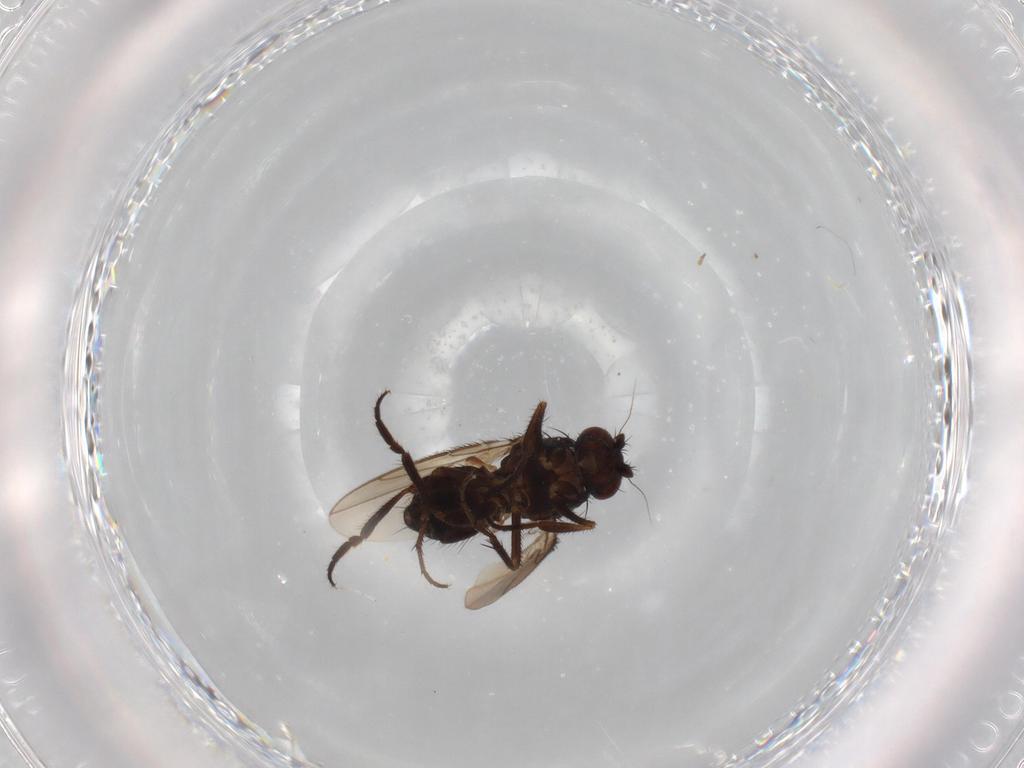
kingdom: Animalia
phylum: Arthropoda
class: Insecta
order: Diptera
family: Sphaeroceridae
